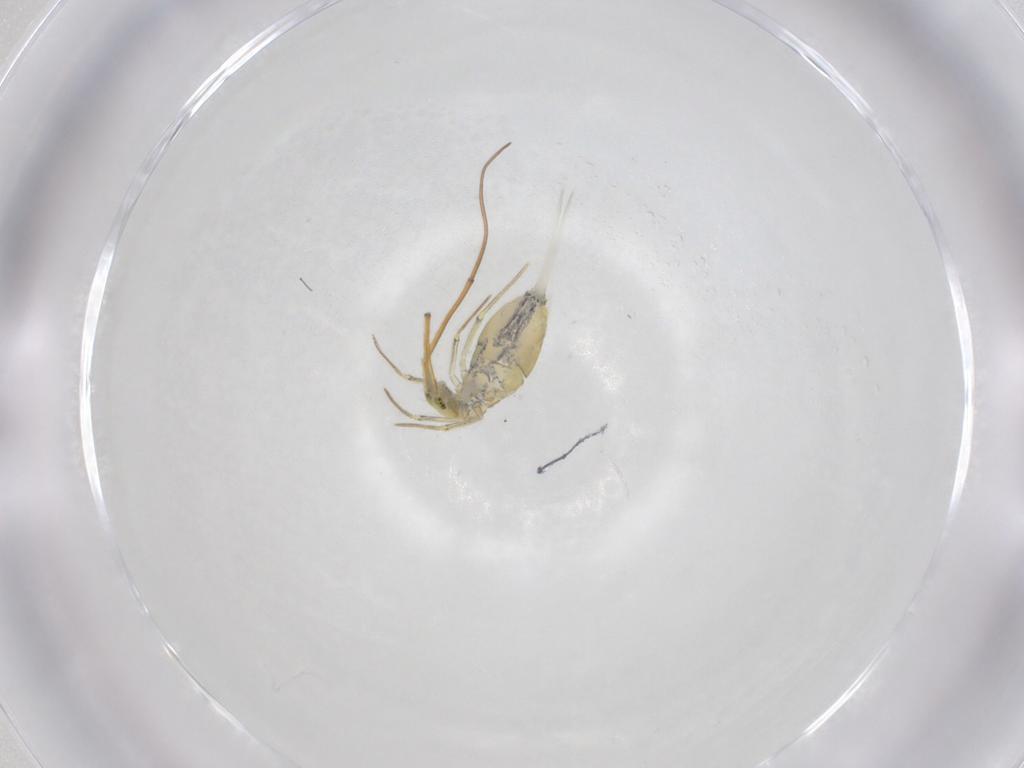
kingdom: Animalia
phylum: Arthropoda
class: Collembola
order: Entomobryomorpha
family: Paronellidae
